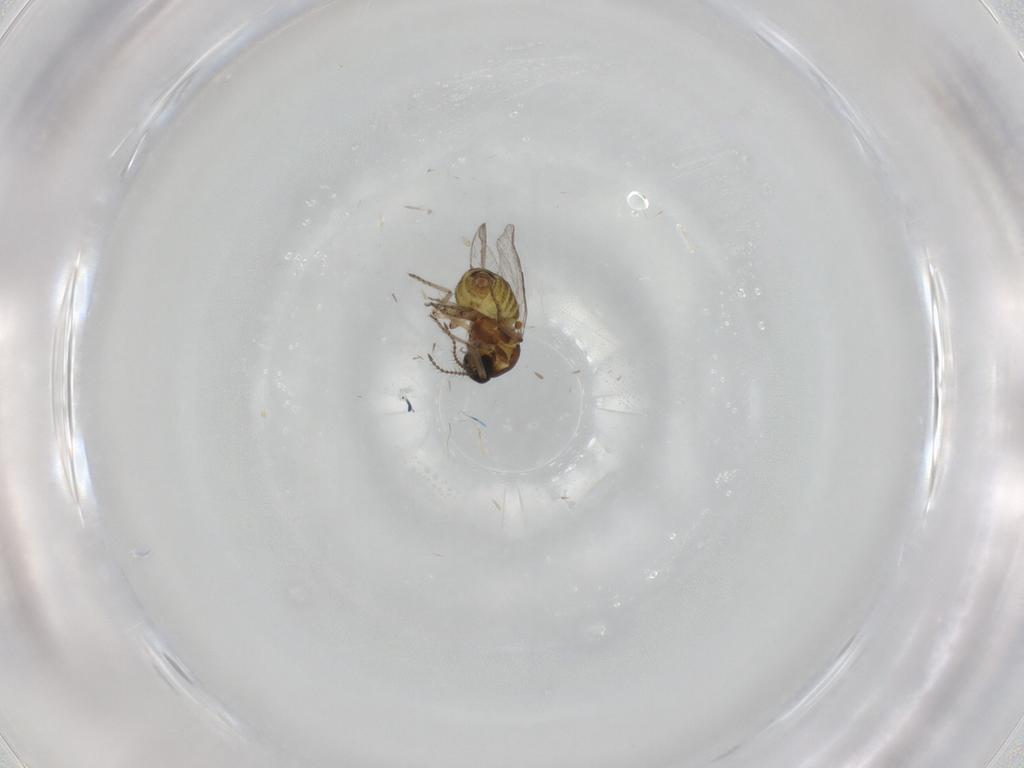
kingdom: Animalia
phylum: Arthropoda
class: Insecta
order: Diptera
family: Ceratopogonidae
